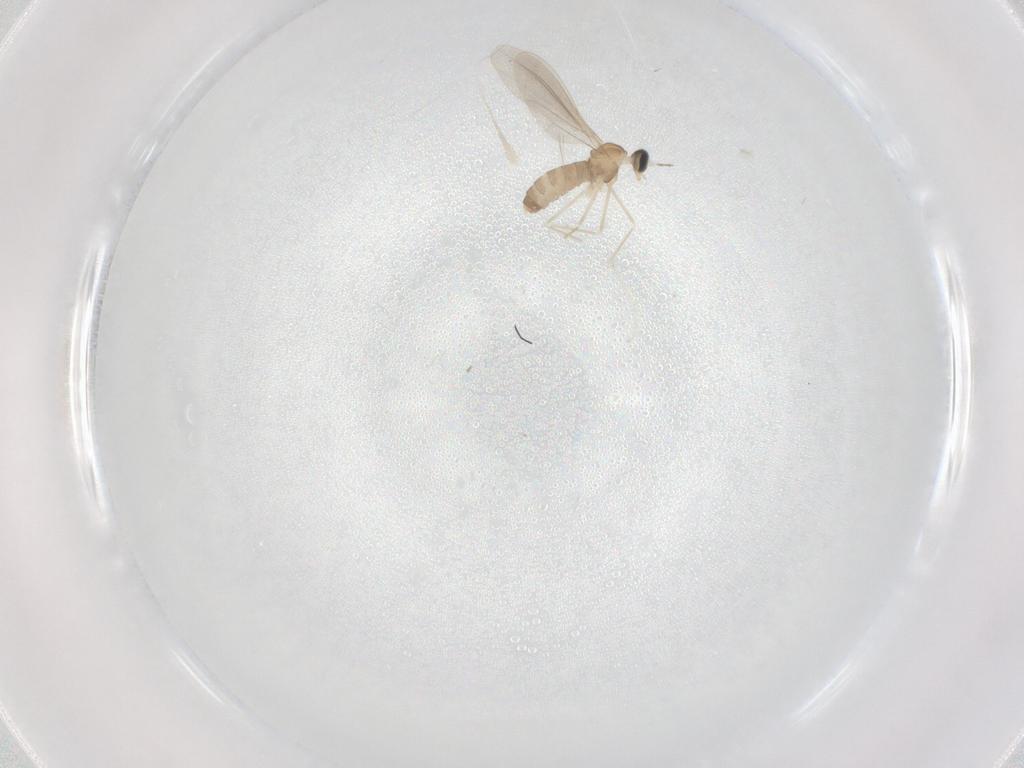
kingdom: Animalia
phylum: Arthropoda
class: Insecta
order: Diptera
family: Cecidomyiidae
